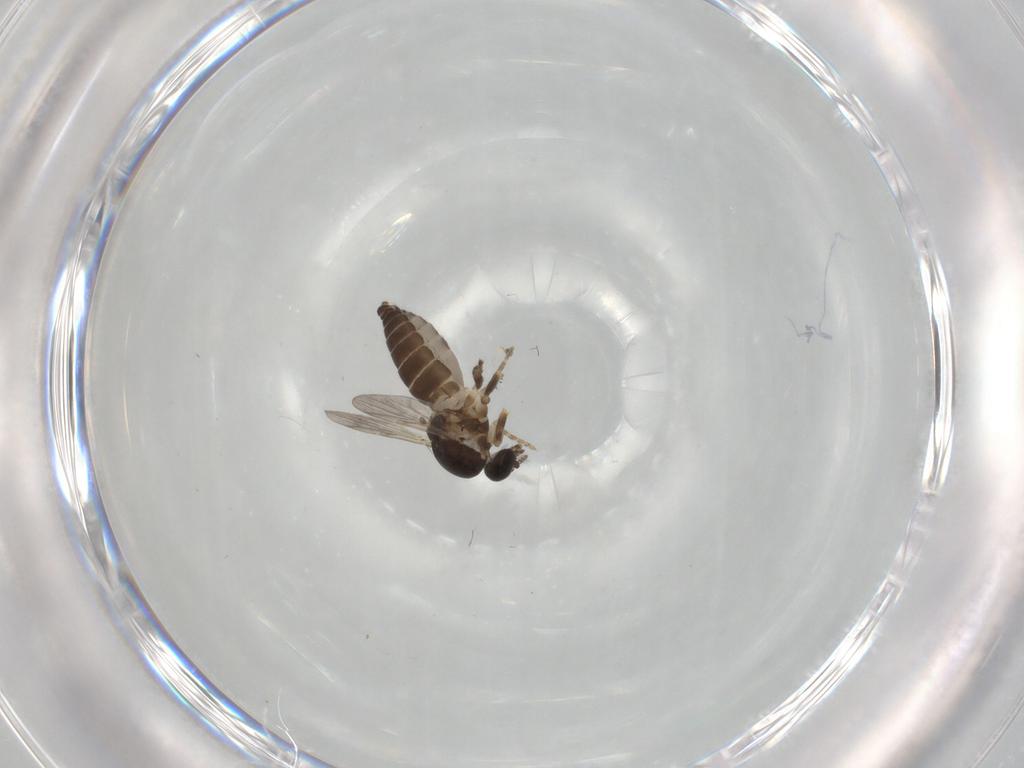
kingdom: Animalia
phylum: Arthropoda
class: Insecta
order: Diptera
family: Ceratopogonidae
